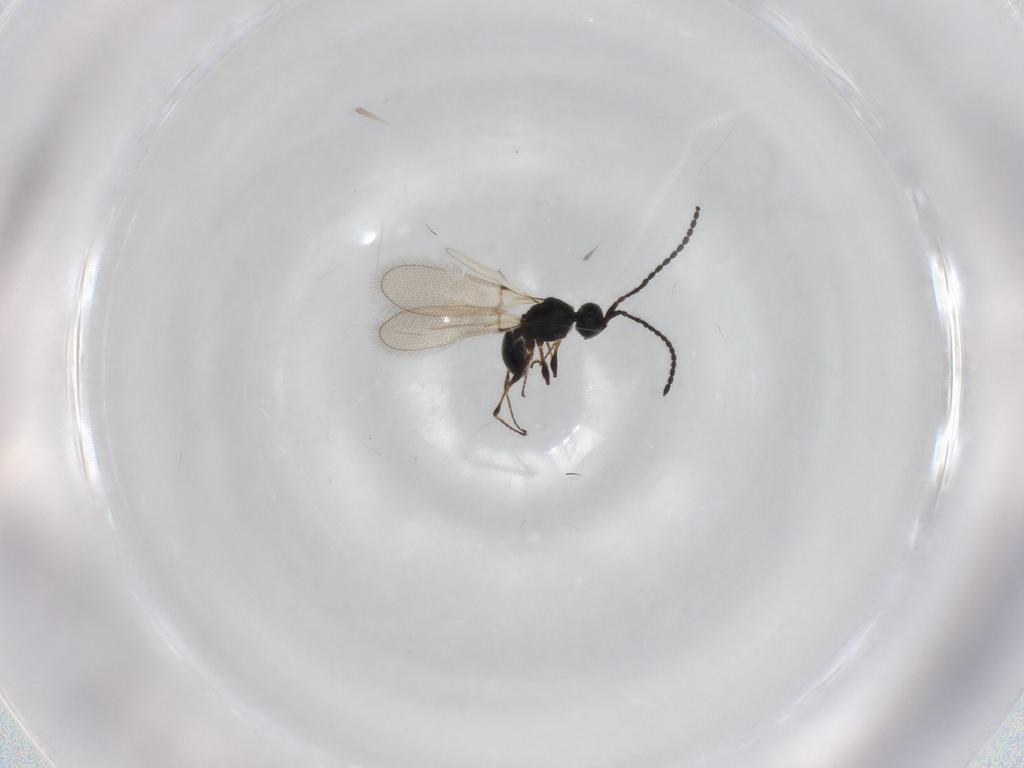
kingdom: Animalia
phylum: Arthropoda
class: Insecta
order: Hymenoptera
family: Diapriidae
